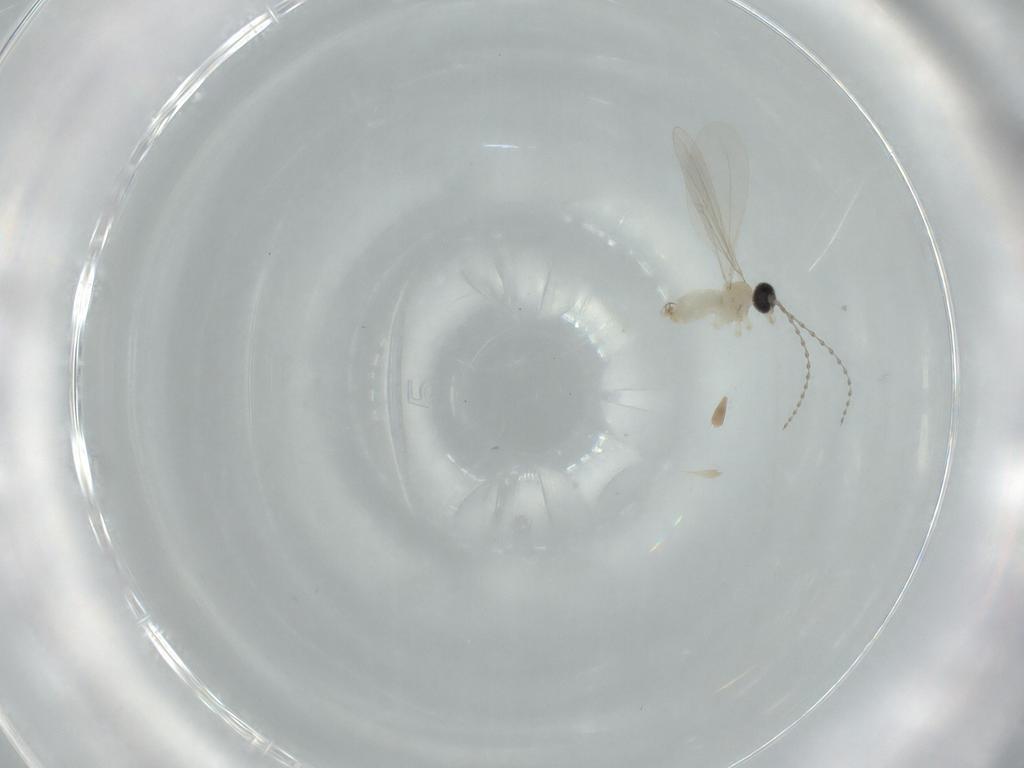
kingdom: Animalia
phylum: Arthropoda
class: Insecta
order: Diptera
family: Cecidomyiidae
